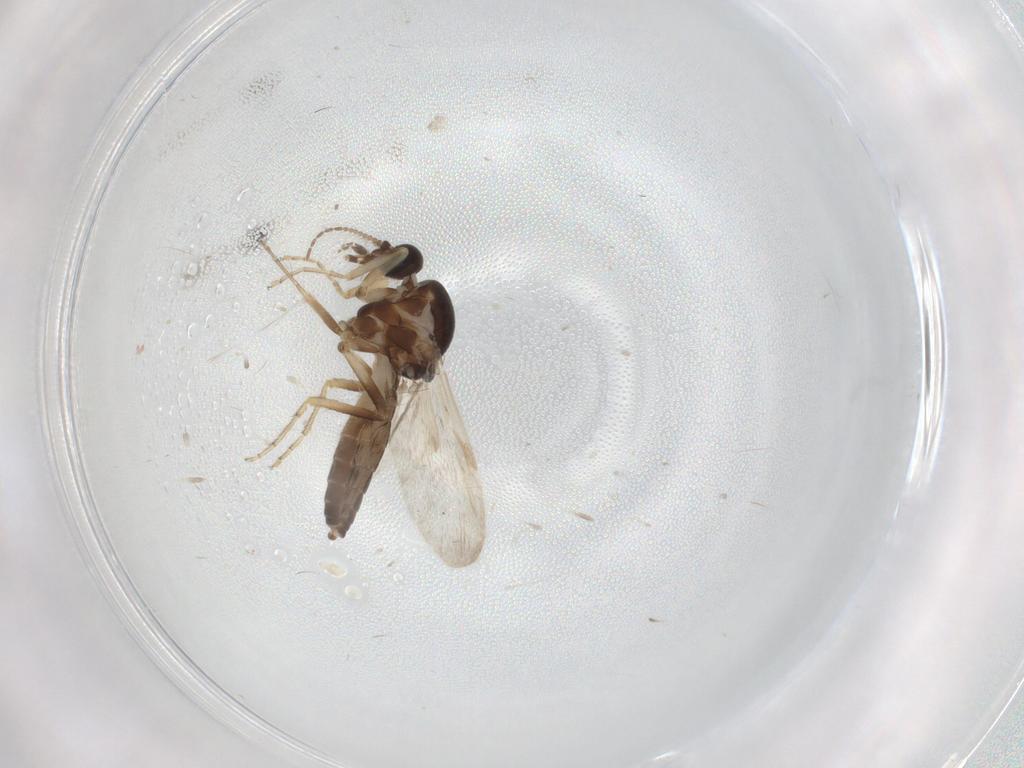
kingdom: Animalia
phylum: Arthropoda
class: Insecta
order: Diptera
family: Ceratopogonidae
